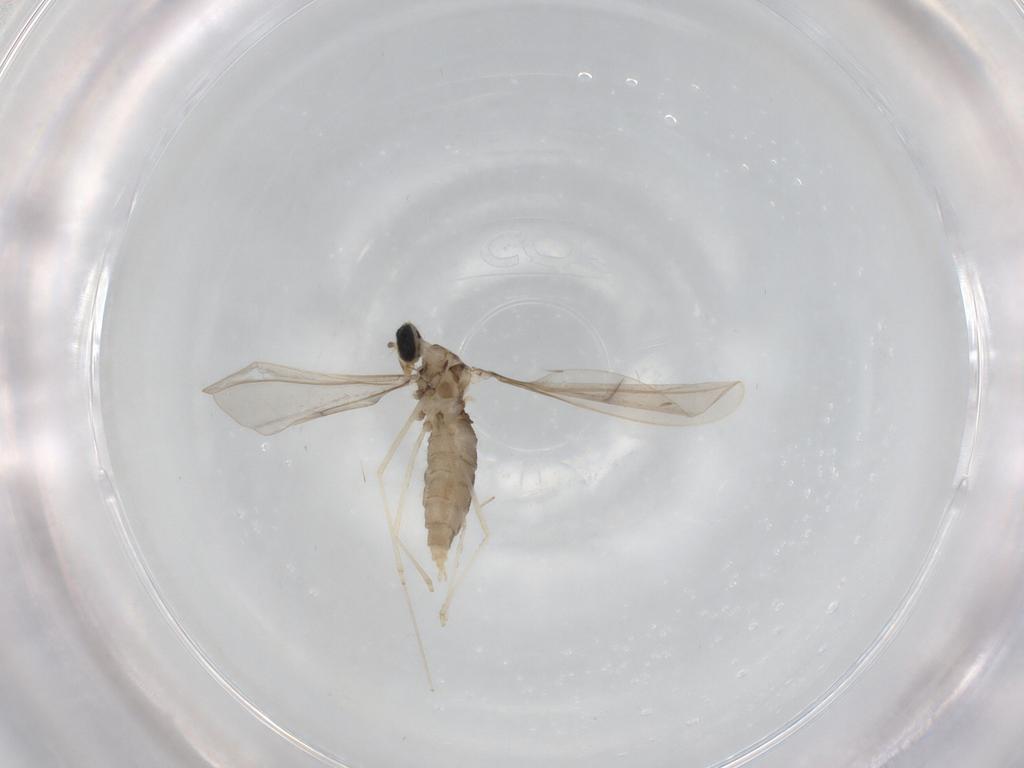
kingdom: Animalia
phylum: Arthropoda
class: Insecta
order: Diptera
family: Cecidomyiidae
